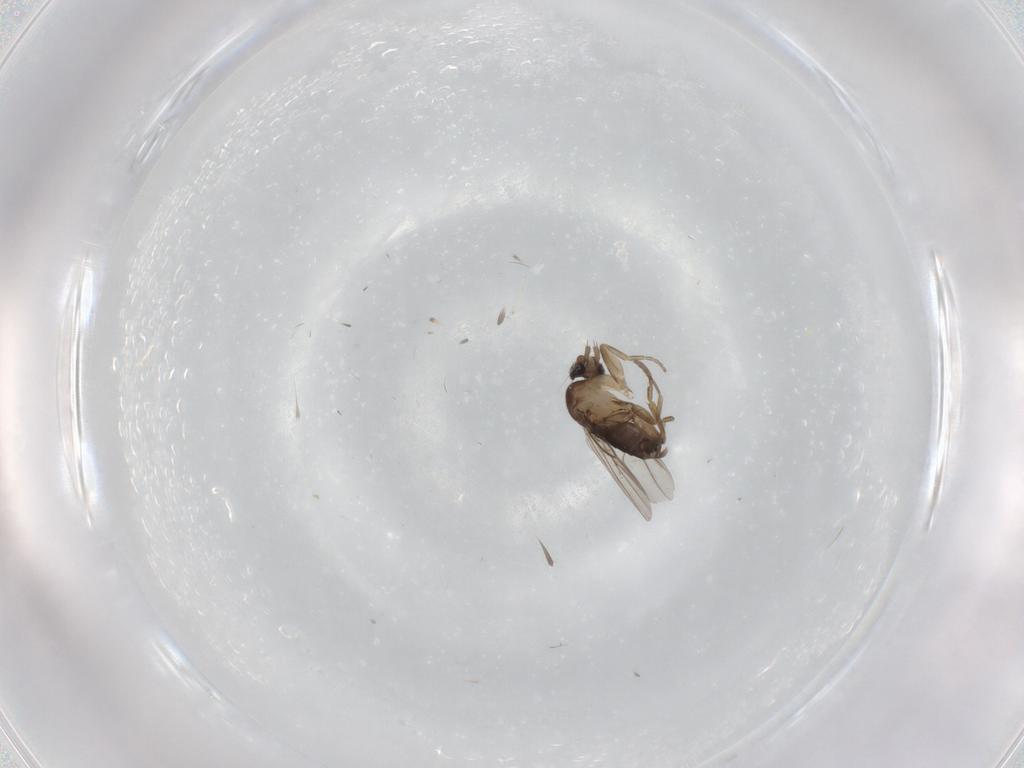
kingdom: Animalia
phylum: Arthropoda
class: Insecta
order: Diptera
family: Phoridae
